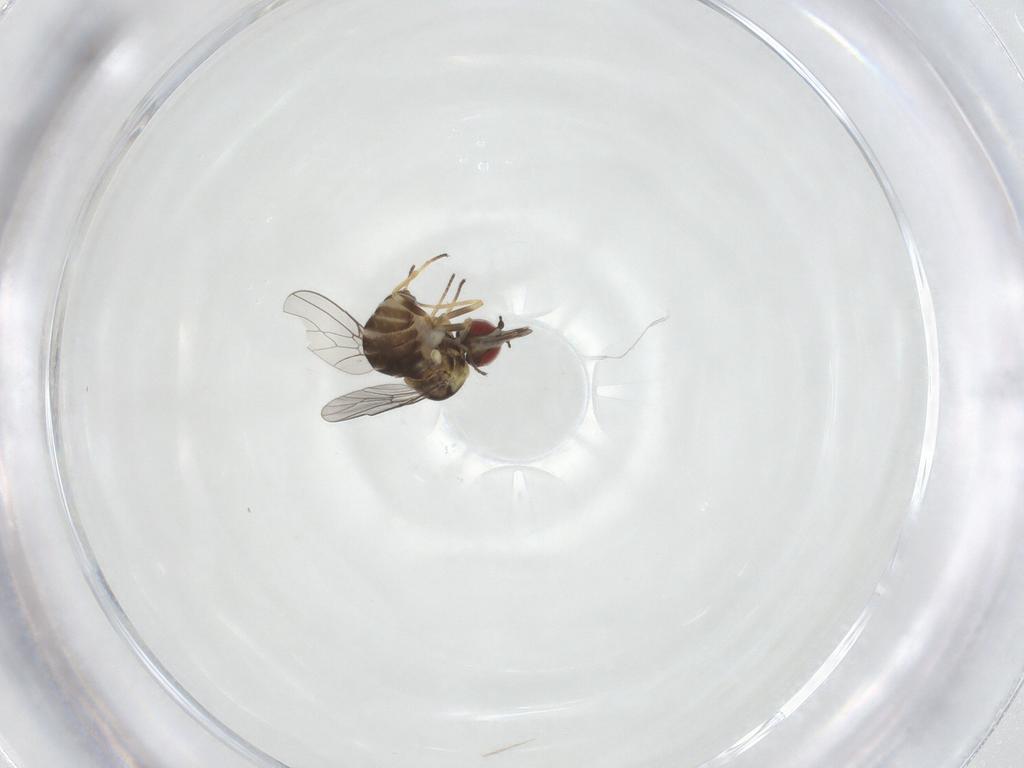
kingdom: Animalia
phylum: Arthropoda
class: Insecta
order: Diptera
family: Bombyliidae
